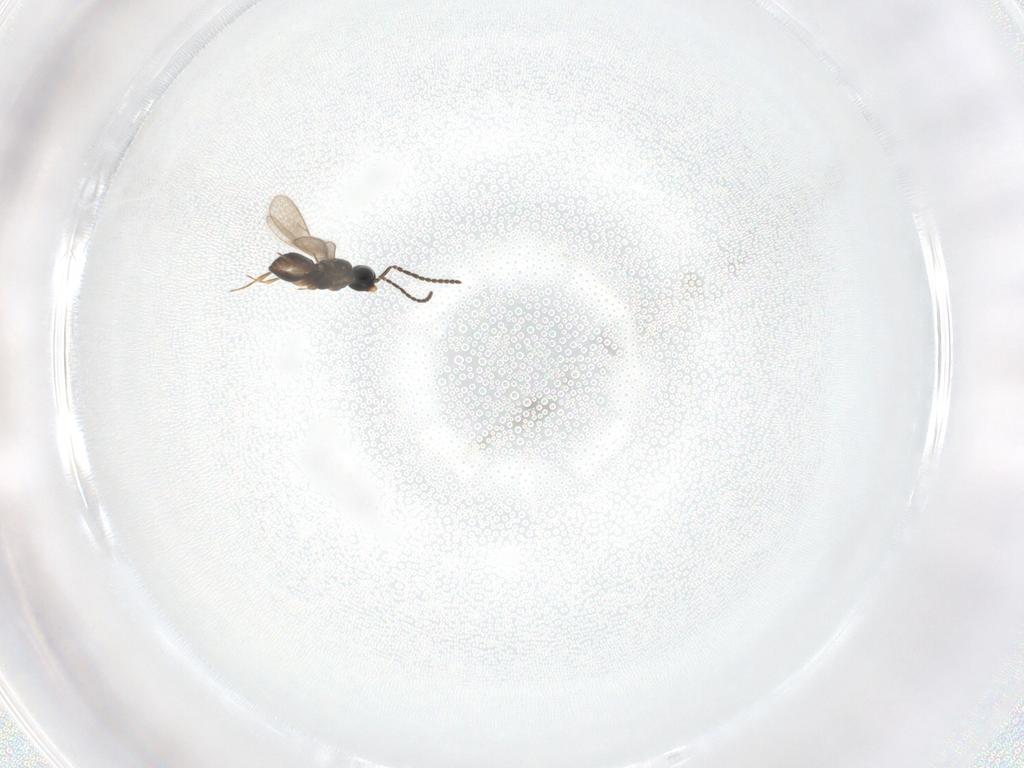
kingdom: Animalia
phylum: Arthropoda
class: Insecta
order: Hymenoptera
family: Scelionidae
